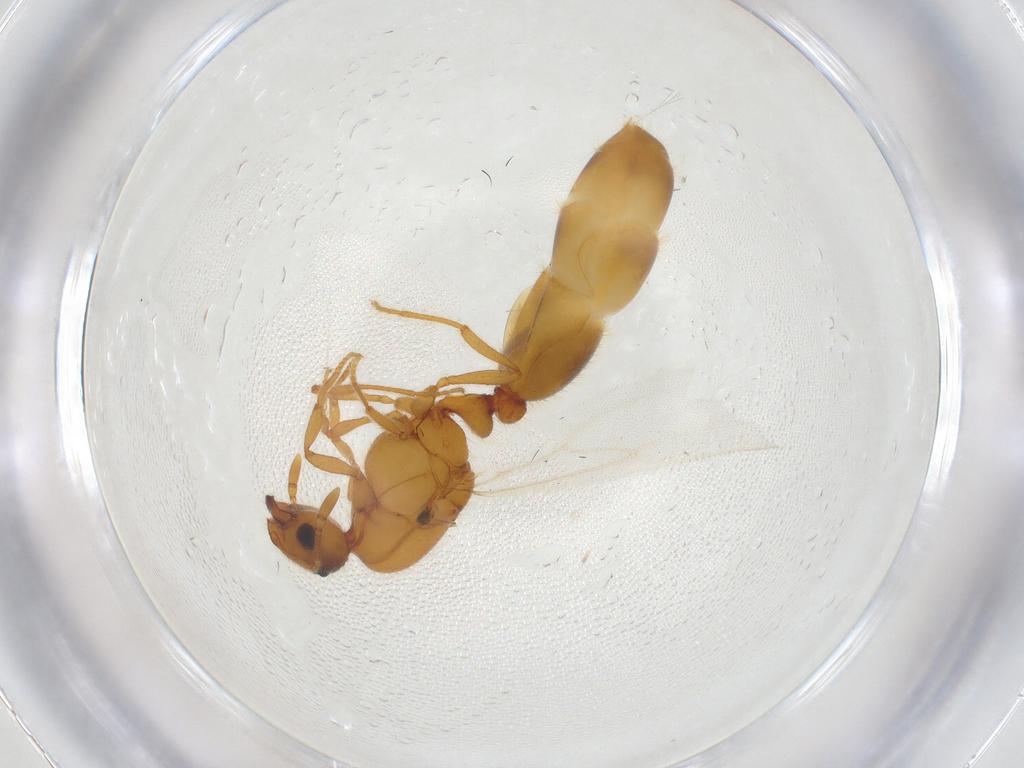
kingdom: Animalia
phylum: Arthropoda
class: Insecta
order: Hymenoptera
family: Formicidae
